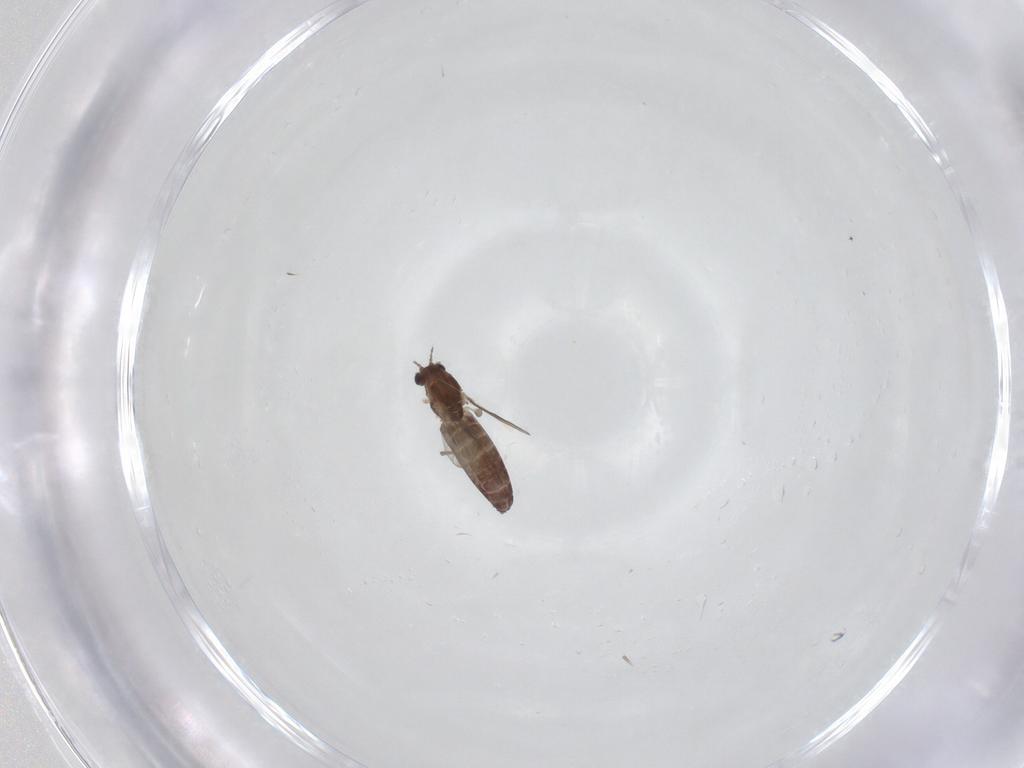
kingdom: Animalia
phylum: Arthropoda
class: Insecta
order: Diptera
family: Chironomidae
